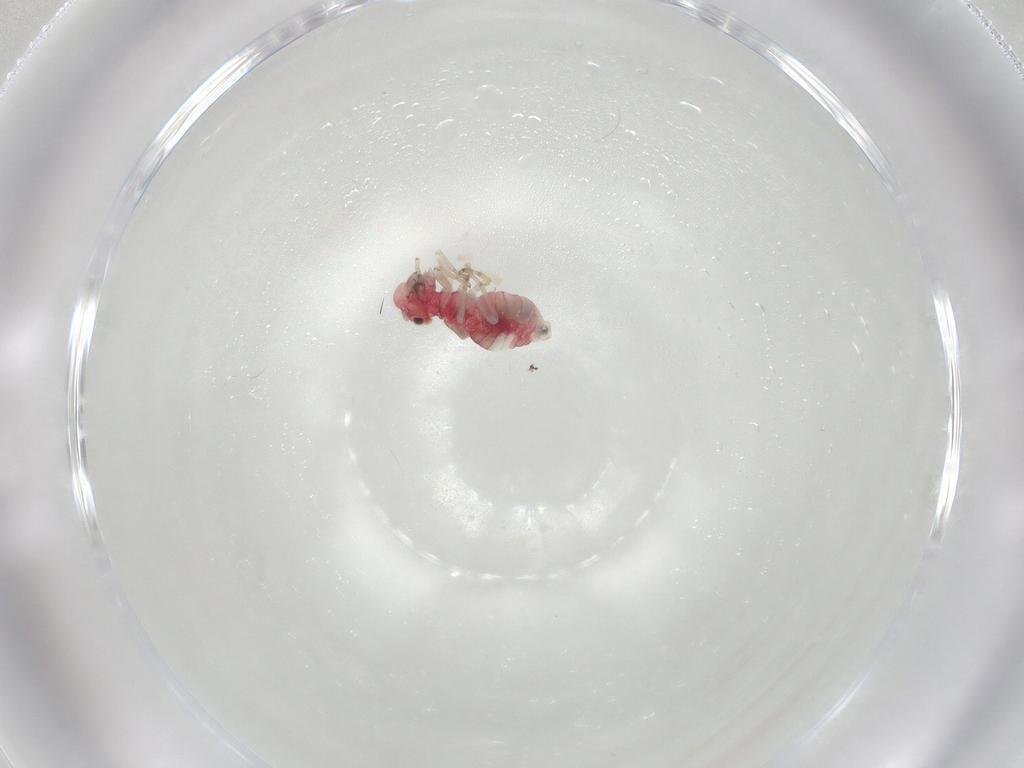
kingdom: Animalia
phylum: Arthropoda
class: Insecta
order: Psocodea
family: Caeciliusidae
